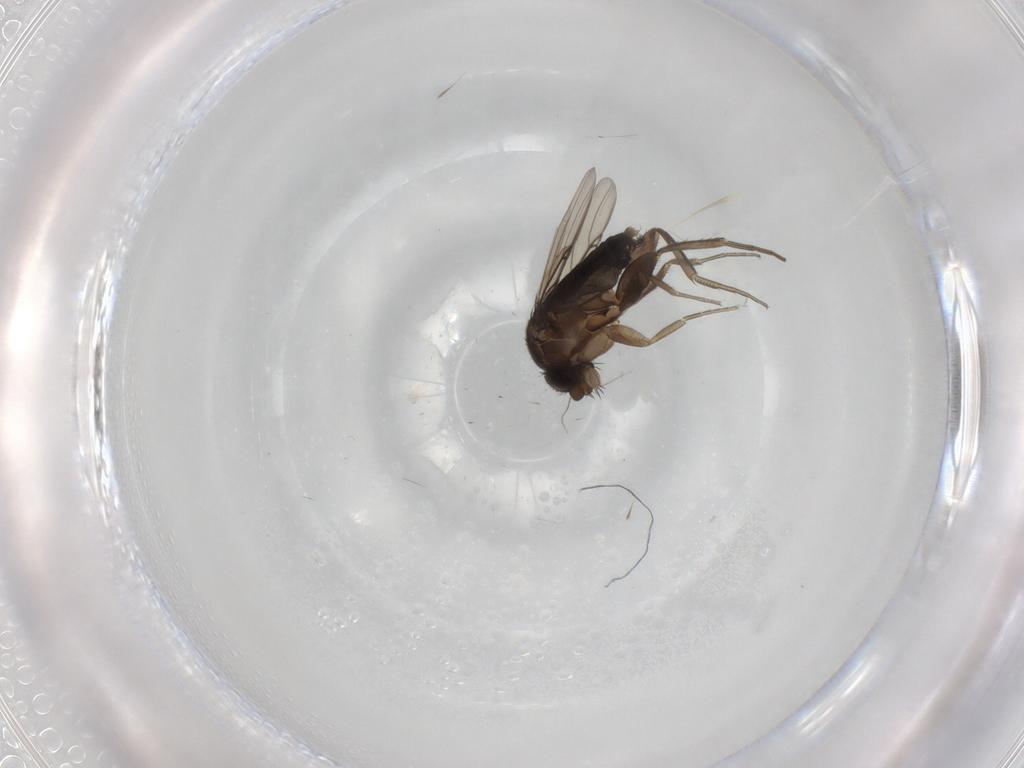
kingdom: Animalia
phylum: Arthropoda
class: Insecta
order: Diptera
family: Phoridae
